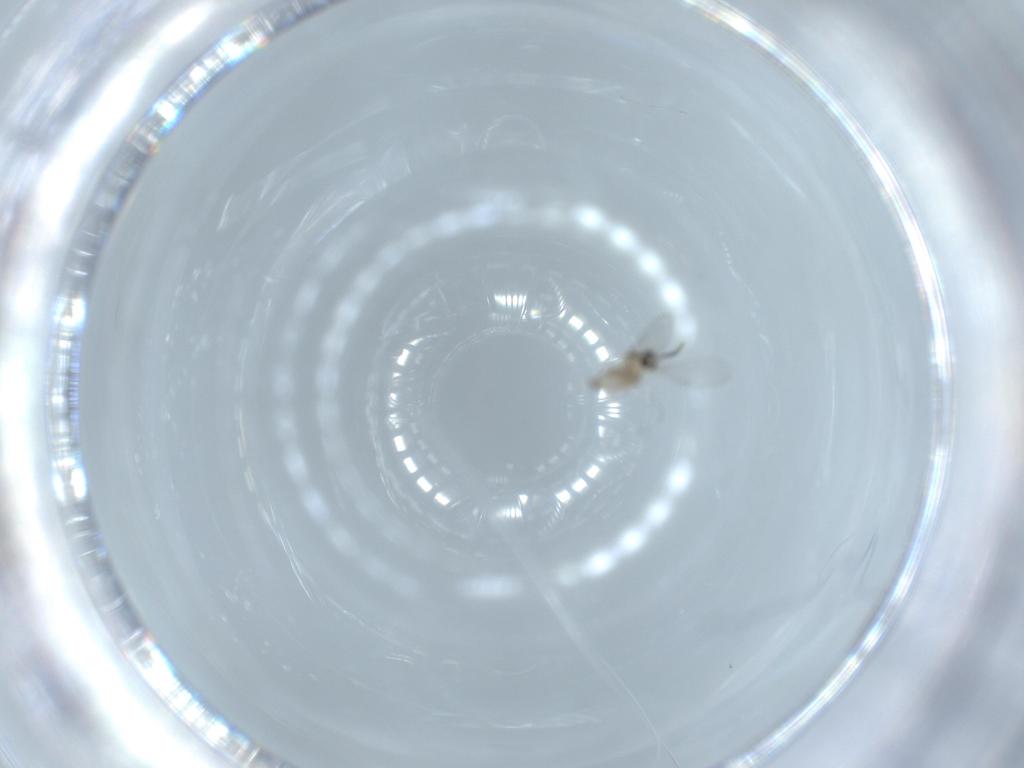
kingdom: Animalia
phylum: Arthropoda
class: Insecta
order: Diptera
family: Cecidomyiidae
